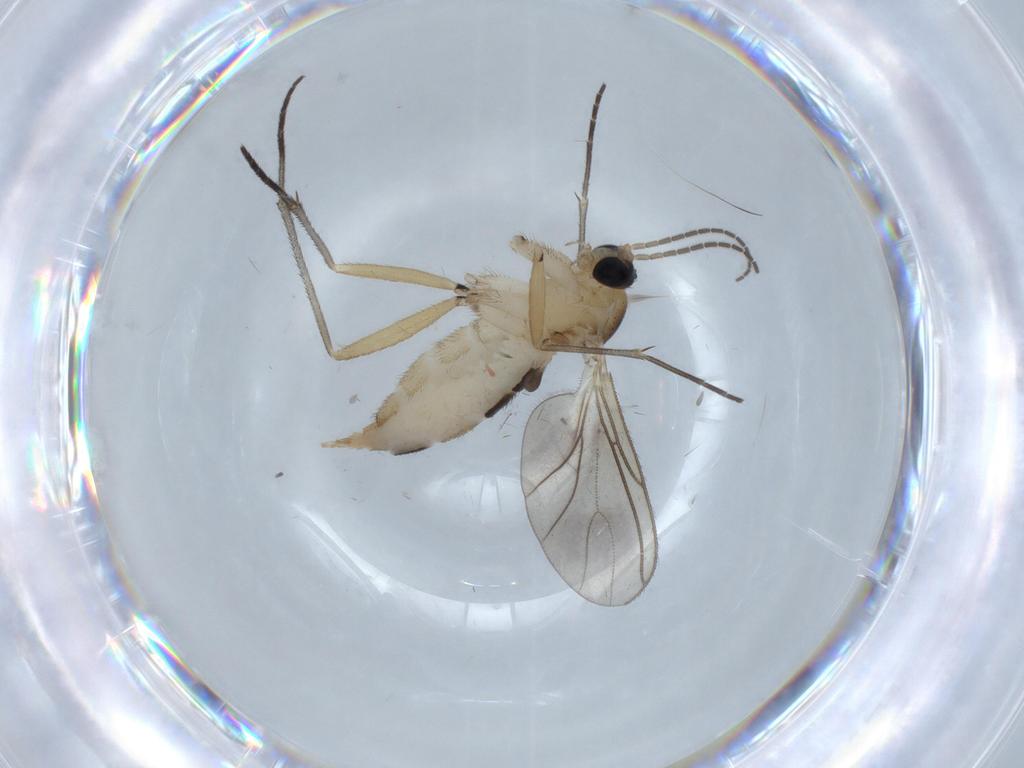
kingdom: Animalia
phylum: Arthropoda
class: Insecta
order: Diptera
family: Sciaridae
